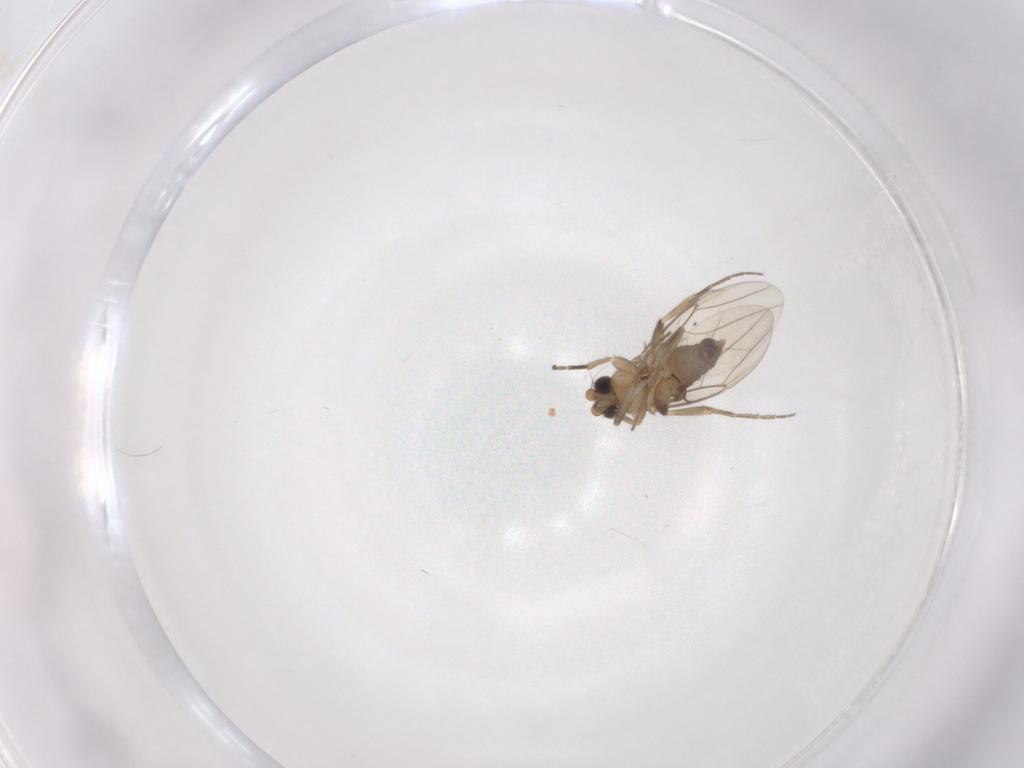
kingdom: Animalia
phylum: Arthropoda
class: Insecta
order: Diptera
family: Phoridae
